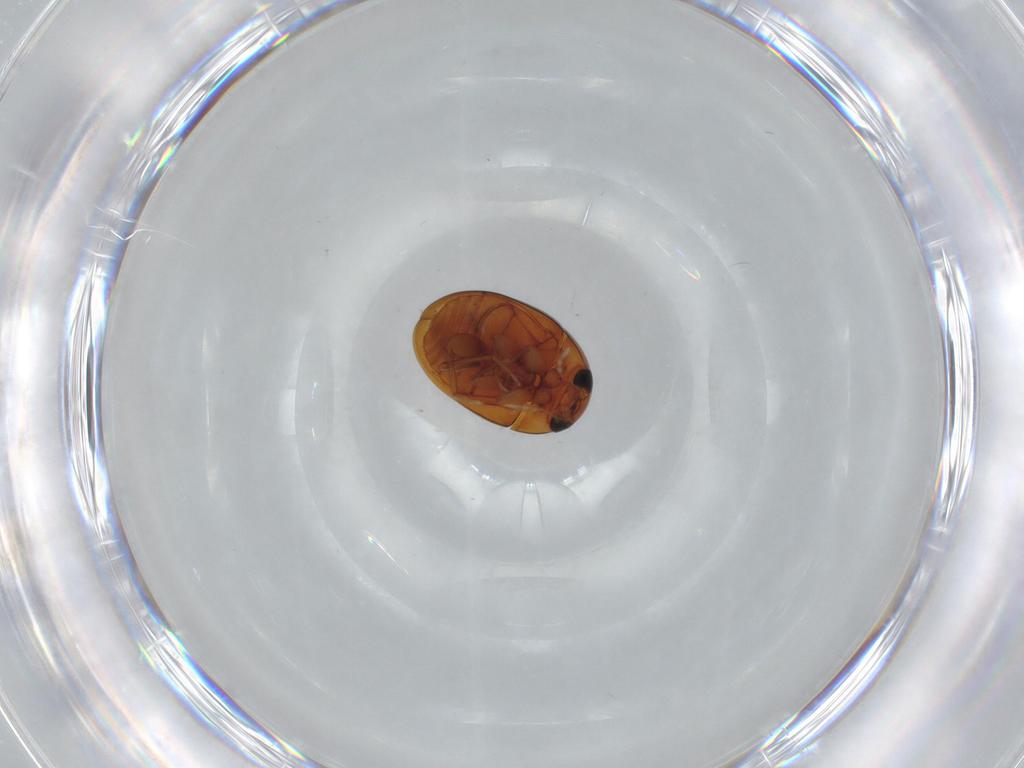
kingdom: Animalia
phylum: Arthropoda
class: Insecta
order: Coleoptera
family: Phalacridae
